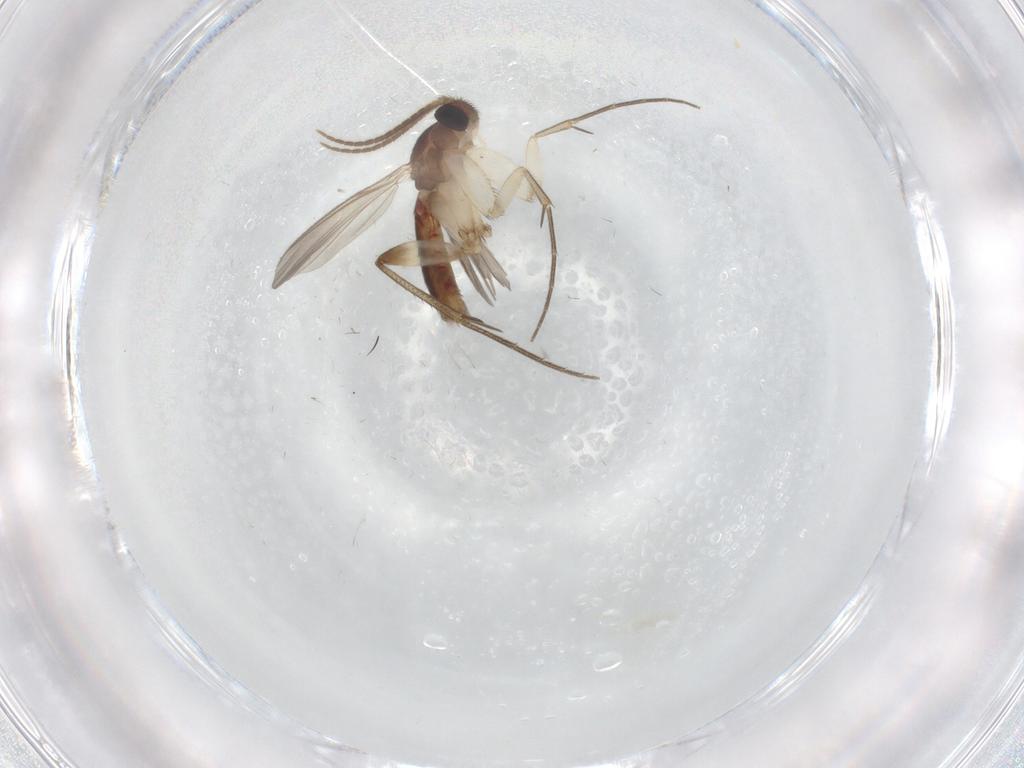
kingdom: Animalia
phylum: Arthropoda
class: Insecta
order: Diptera
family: Mycetophilidae
